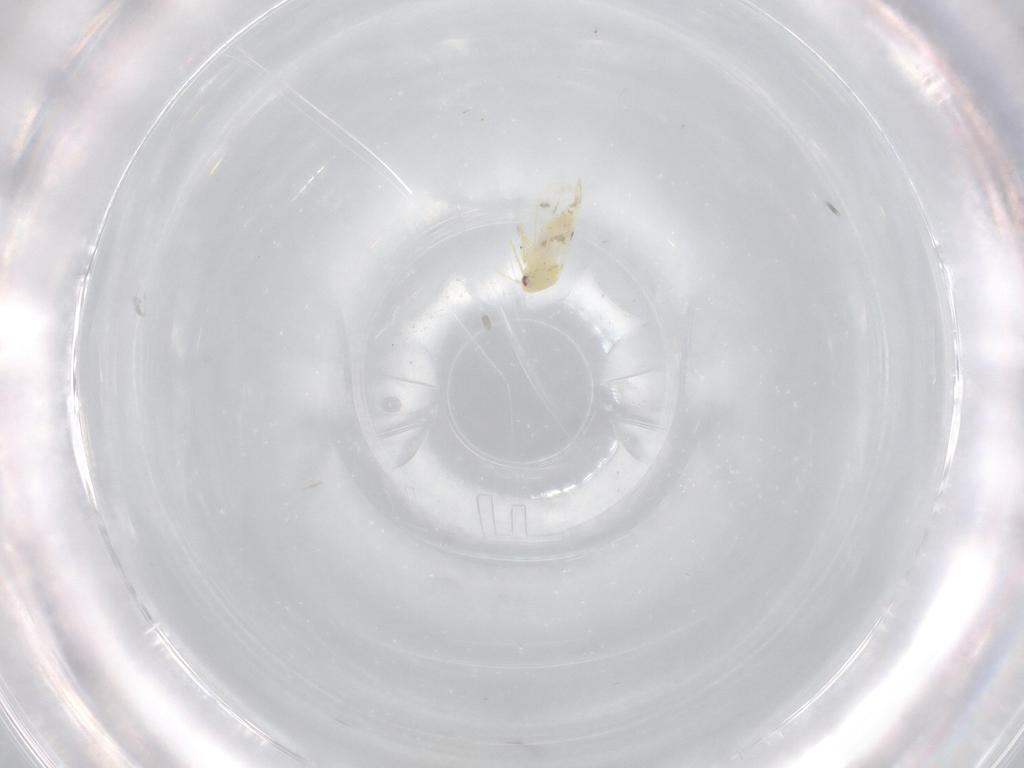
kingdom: Animalia
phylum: Arthropoda
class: Insecta
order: Hemiptera
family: Aleyrodidae
